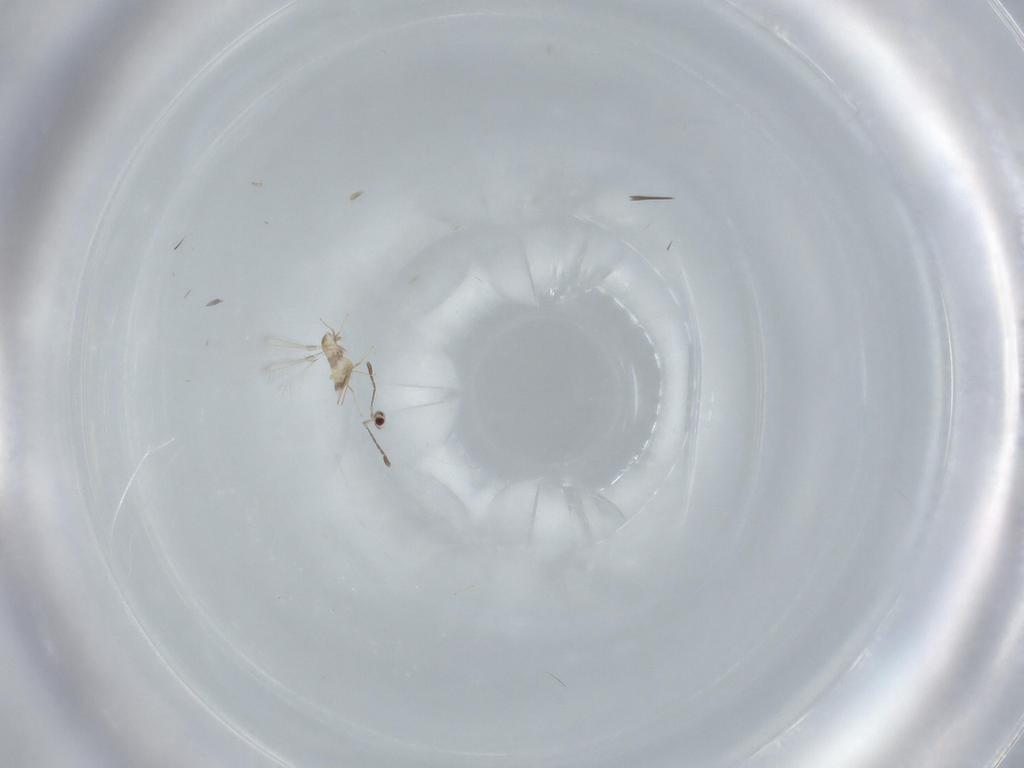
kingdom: Animalia
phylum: Arthropoda
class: Insecta
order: Hymenoptera
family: Mymaridae
